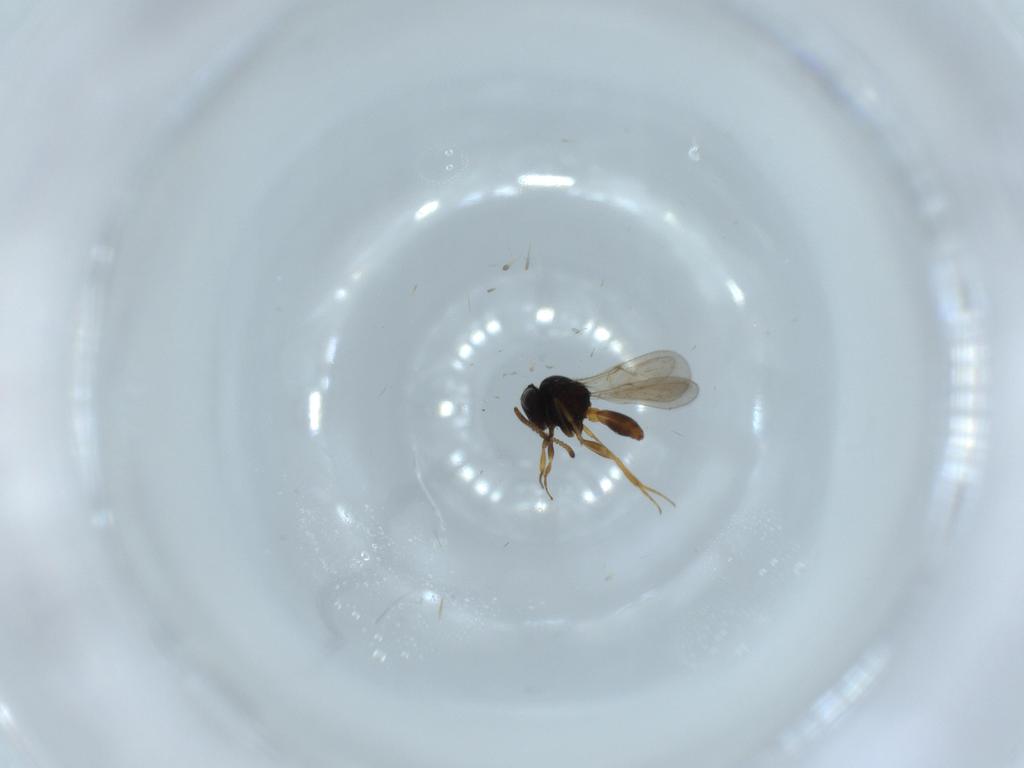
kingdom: Animalia
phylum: Arthropoda
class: Insecta
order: Hymenoptera
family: Scelionidae
